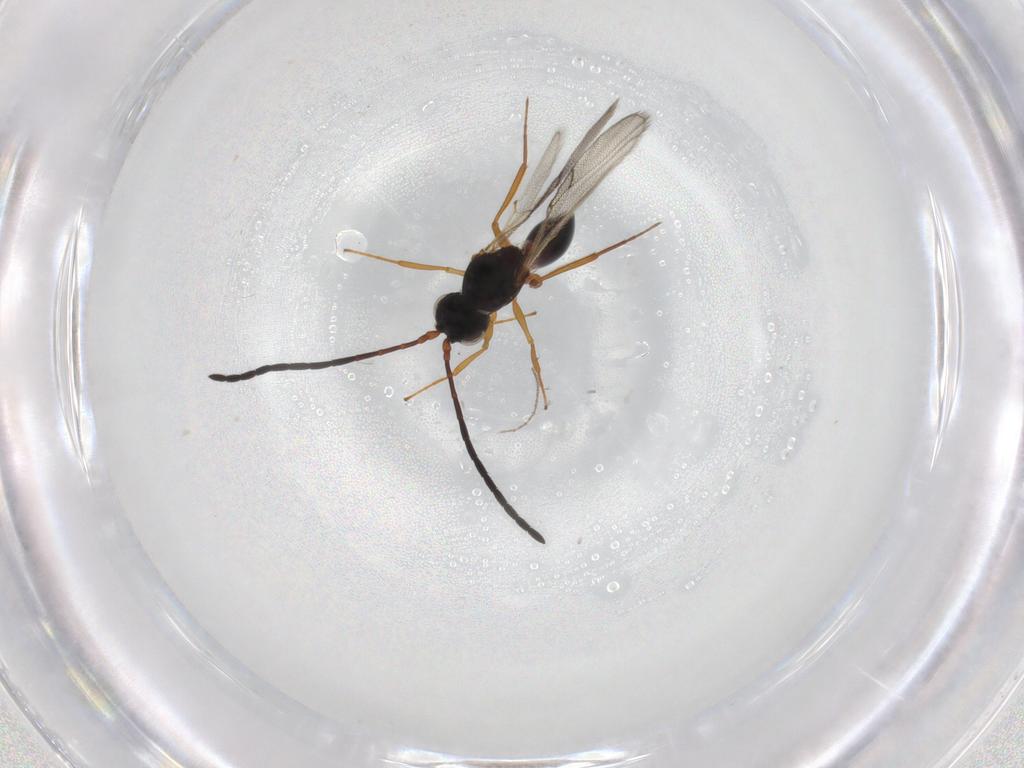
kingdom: Animalia
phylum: Arthropoda
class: Insecta
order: Hymenoptera
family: Figitidae
